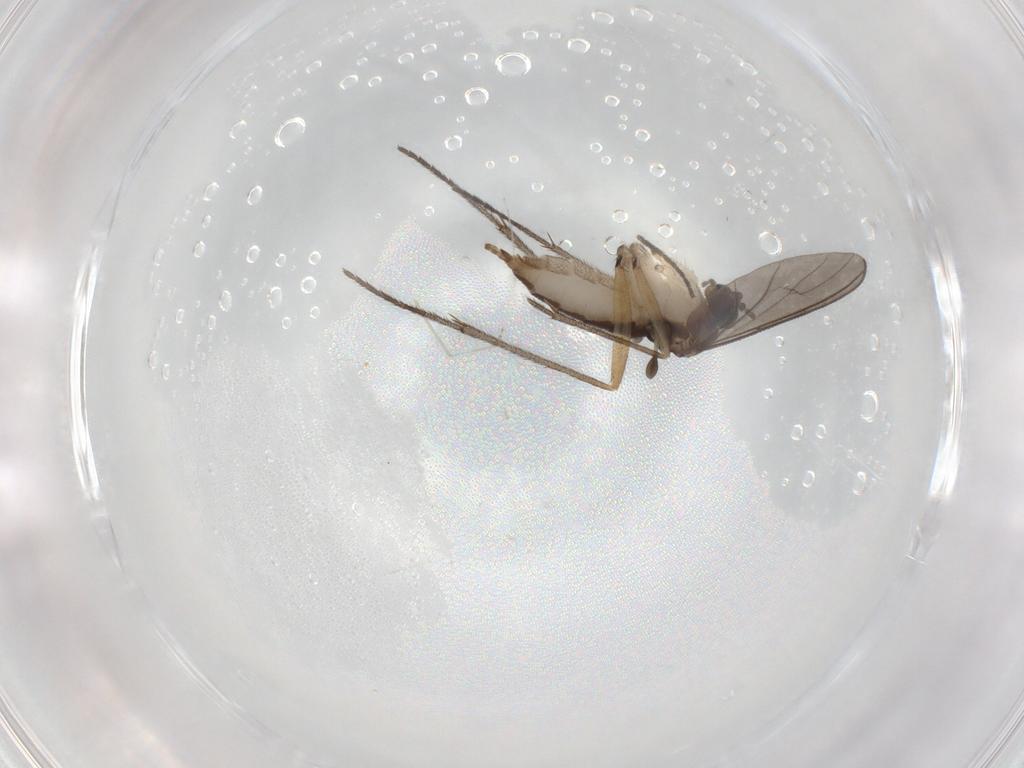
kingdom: Animalia
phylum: Arthropoda
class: Insecta
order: Diptera
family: Sciaridae
